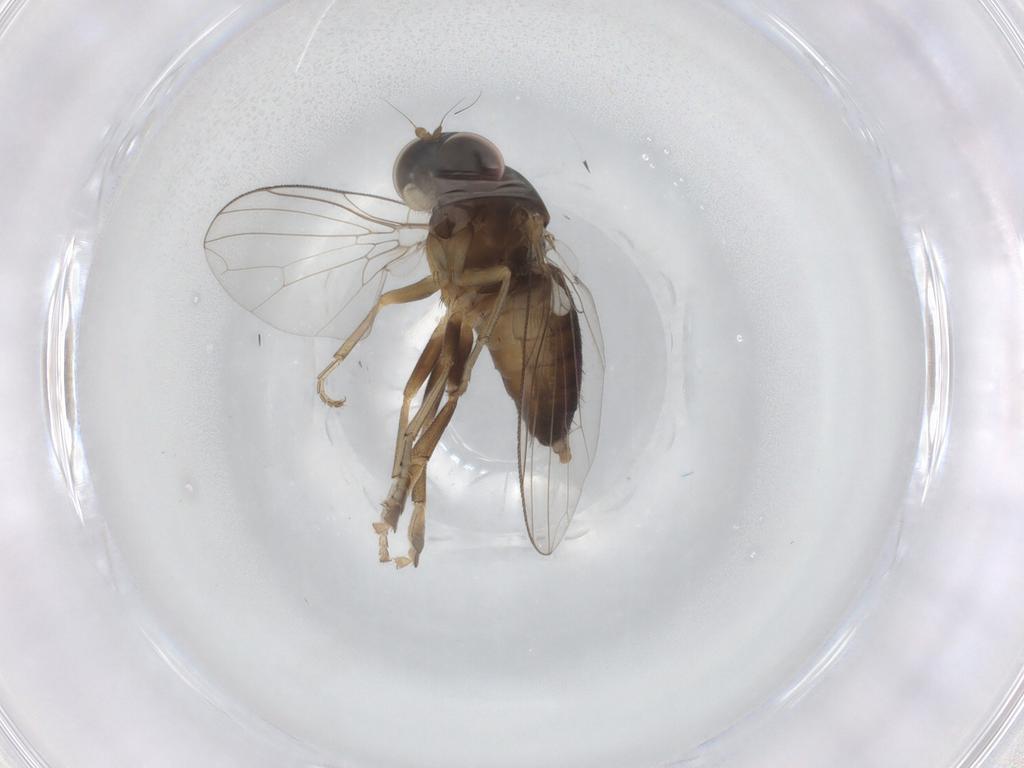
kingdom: Animalia
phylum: Arthropoda
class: Insecta
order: Diptera
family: Platypezidae
